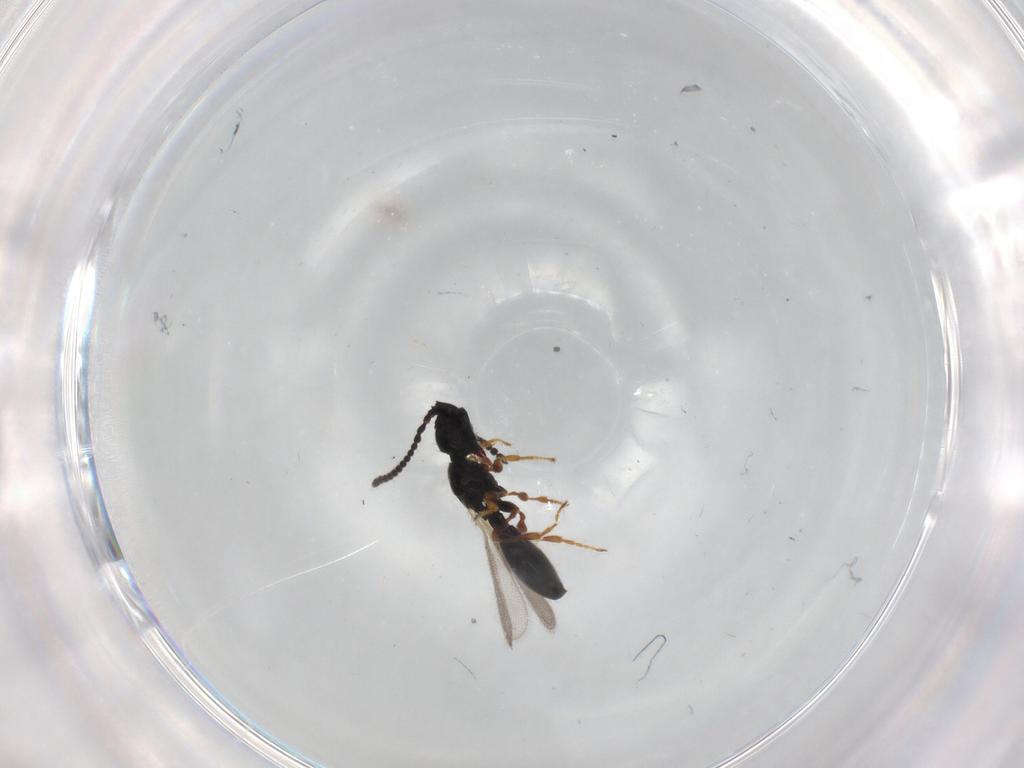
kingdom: Animalia
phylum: Arthropoda
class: Insecta
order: Hymenoptera
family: Diapriidae
